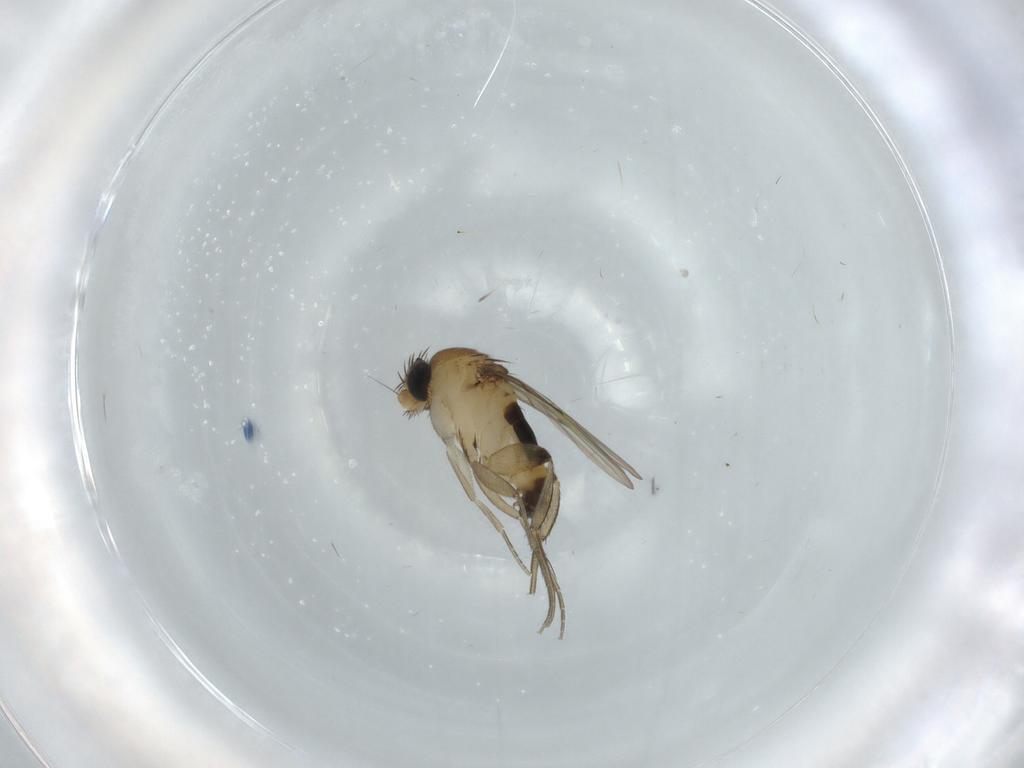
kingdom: Animalia
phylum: Arthropoda
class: Insecta
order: Diptera
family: Phoridae
